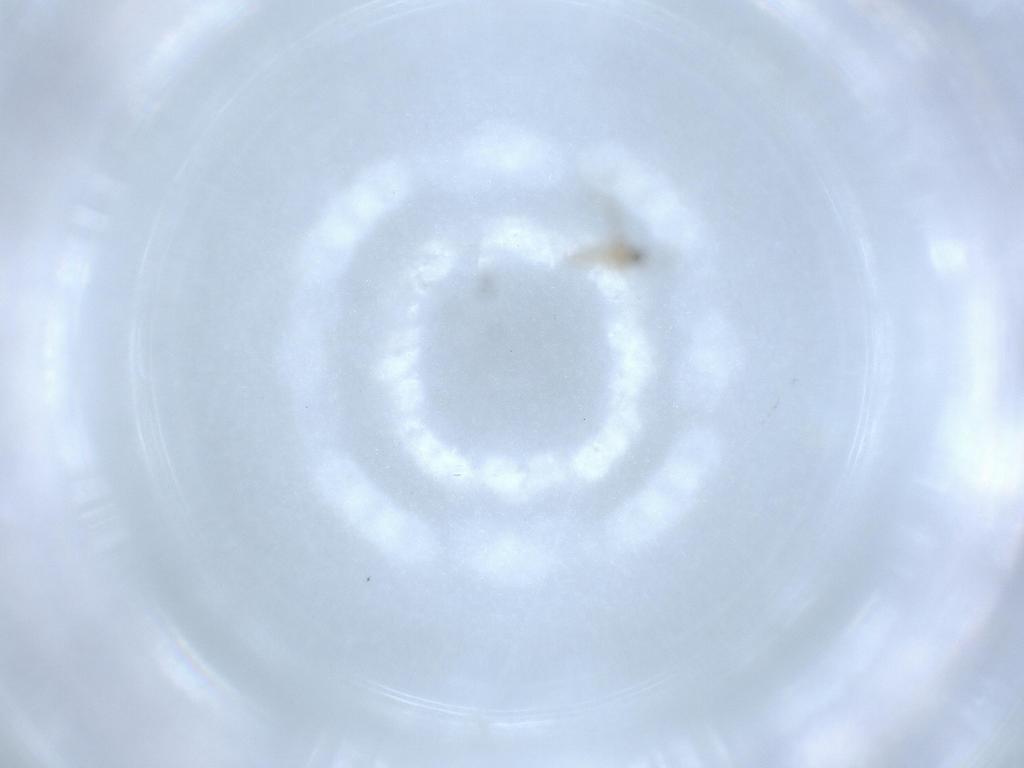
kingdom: Animalia
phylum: Arthropoda
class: Insecta
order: Diptera
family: Cecidomyiidae
